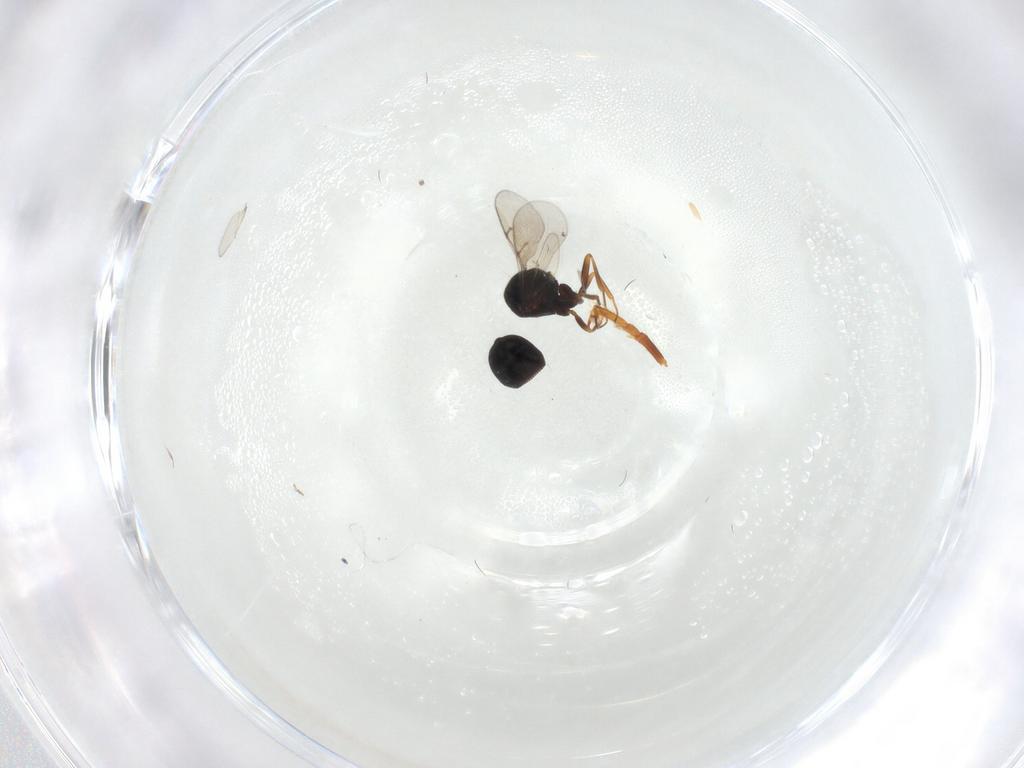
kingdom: Animalia
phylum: Arthropoda
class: Insecta
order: Hymenoptera
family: Scelionidae
